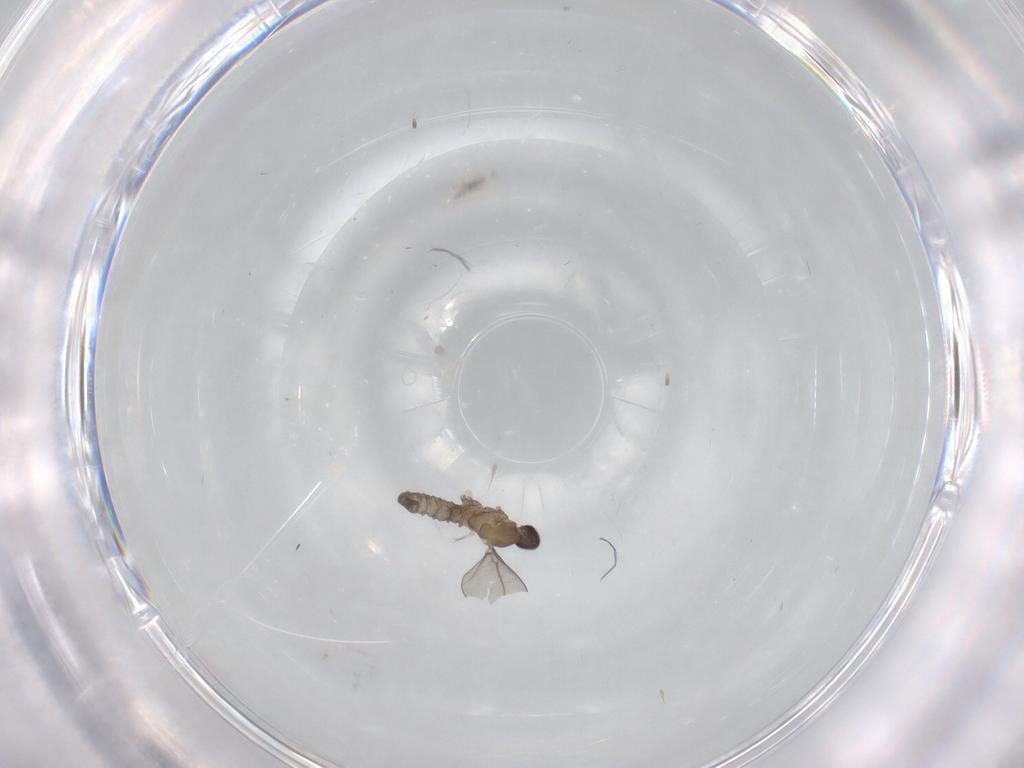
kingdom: Animalia
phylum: Arthropoda
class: Insecta
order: Diptera
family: Cecidomyiidae
